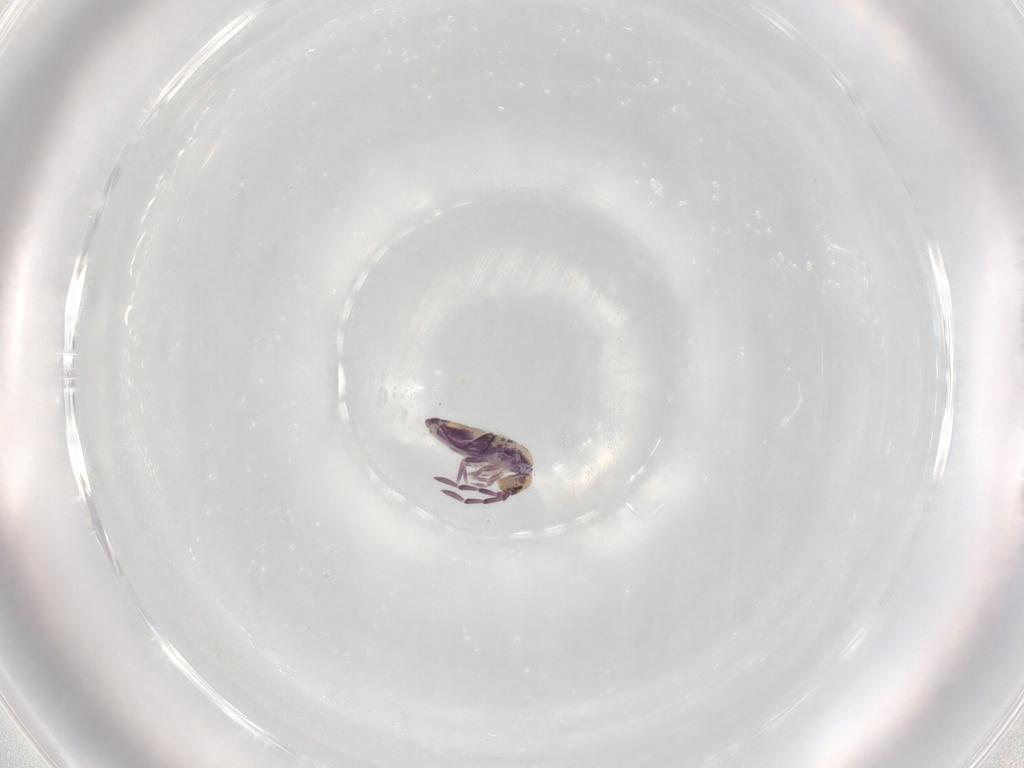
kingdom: Animalia
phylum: Arthropoda
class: Collembola
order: Entomobryomorpha
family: Entomobryidae
